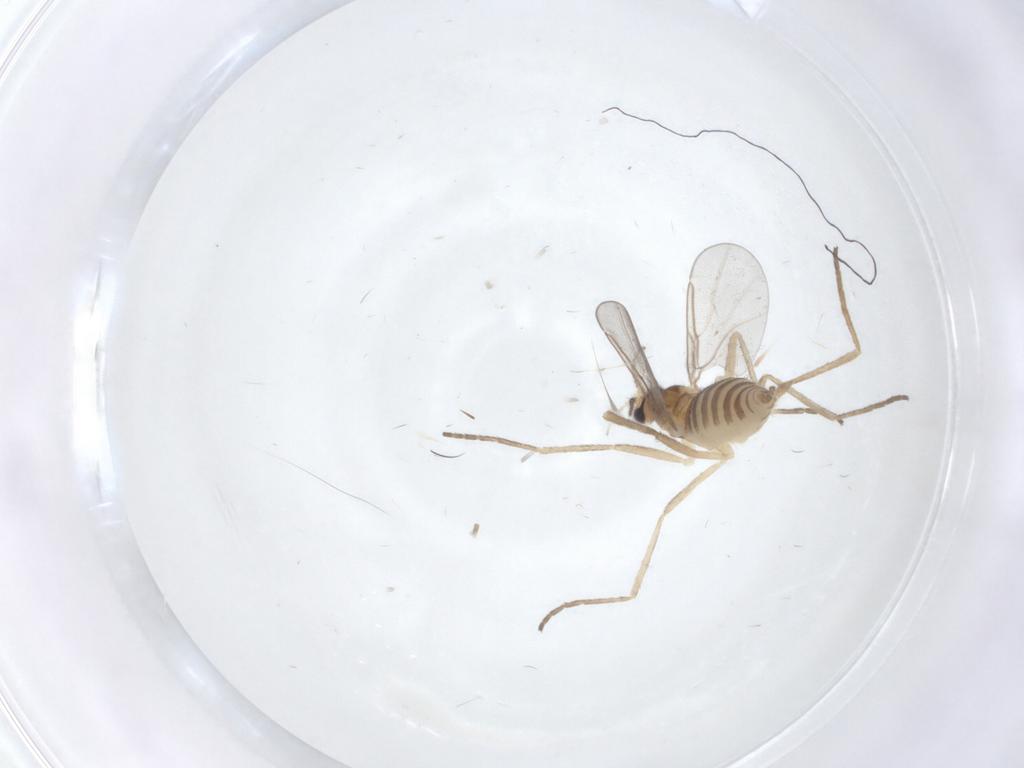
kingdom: Animalia
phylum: Arthropoda
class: Insecta
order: Diptera
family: Cecidomyiidae
